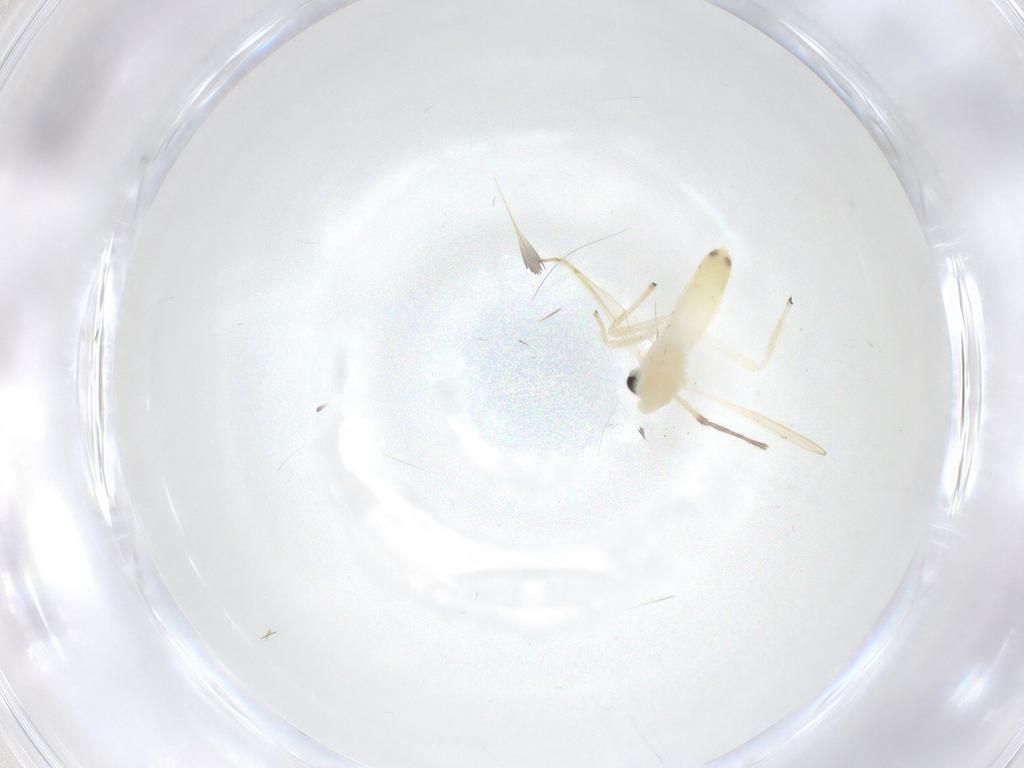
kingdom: Animalia
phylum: Arthropoda
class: Insecta
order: Diptera
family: Chironomidae
